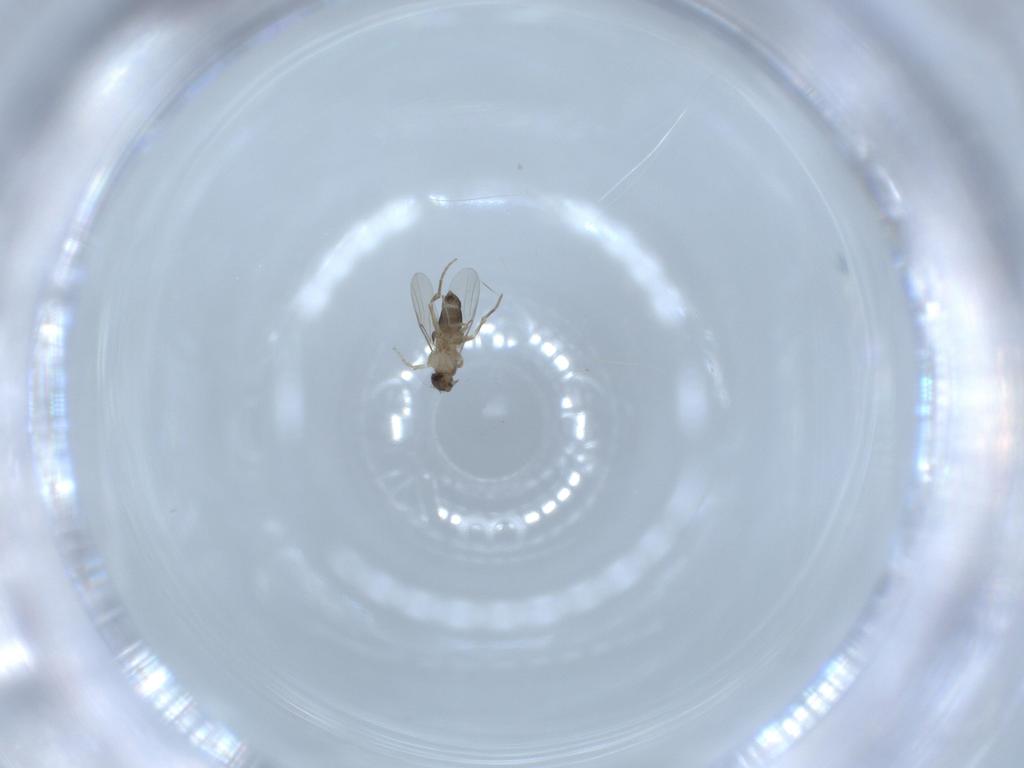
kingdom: Animalia
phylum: Arthropoda
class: Insecta
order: Diptera
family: Phoridae
